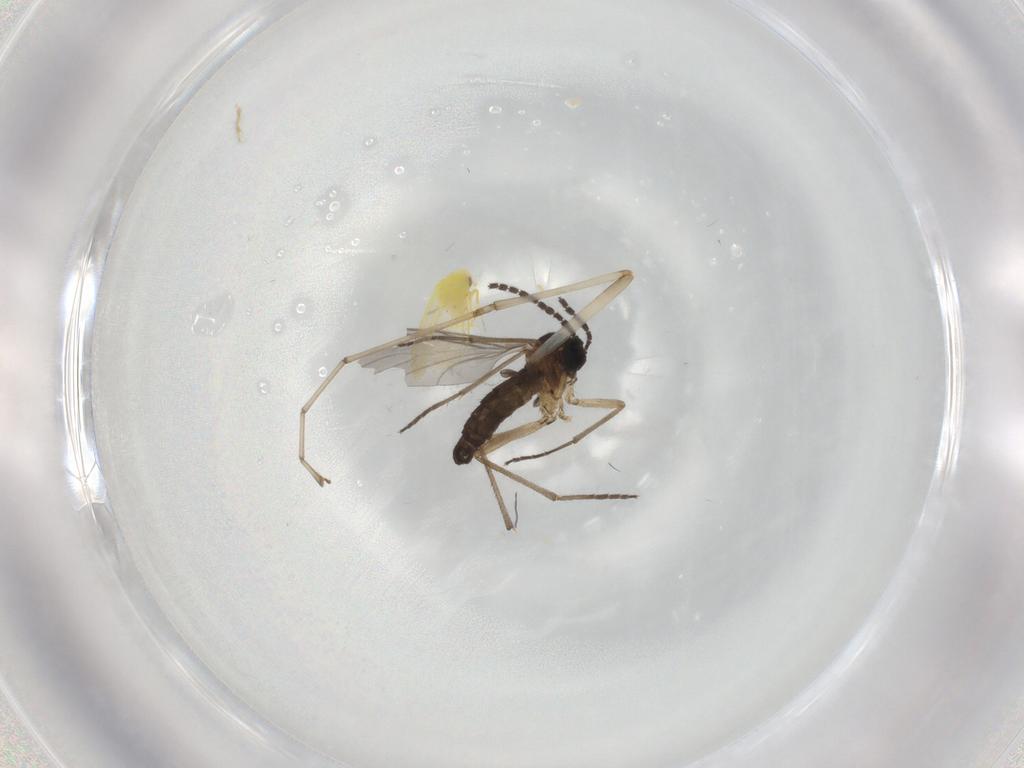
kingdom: Animalia
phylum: Arthropoda
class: Insecta
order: Diptera
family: Sciaridae
